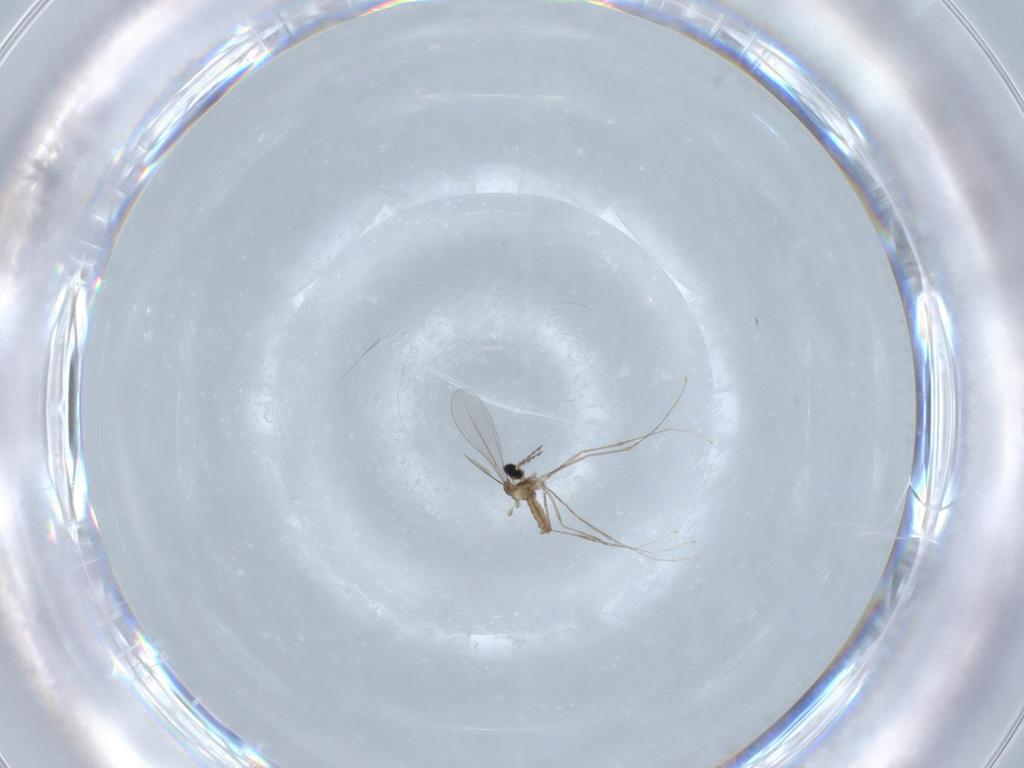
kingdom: Animalia
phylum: Arthropoda
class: Insecta
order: Diptera
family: Cecidomyiidae
